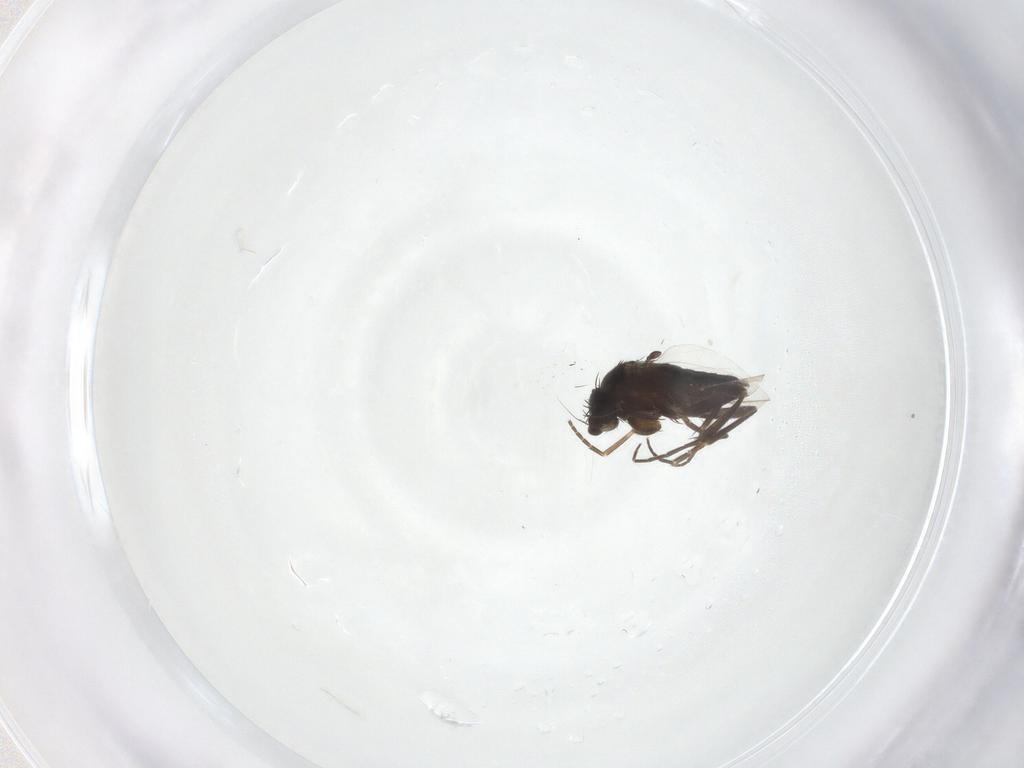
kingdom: Animalia
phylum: Arthropoda
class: Insecta
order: Diptera
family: Phoridae
